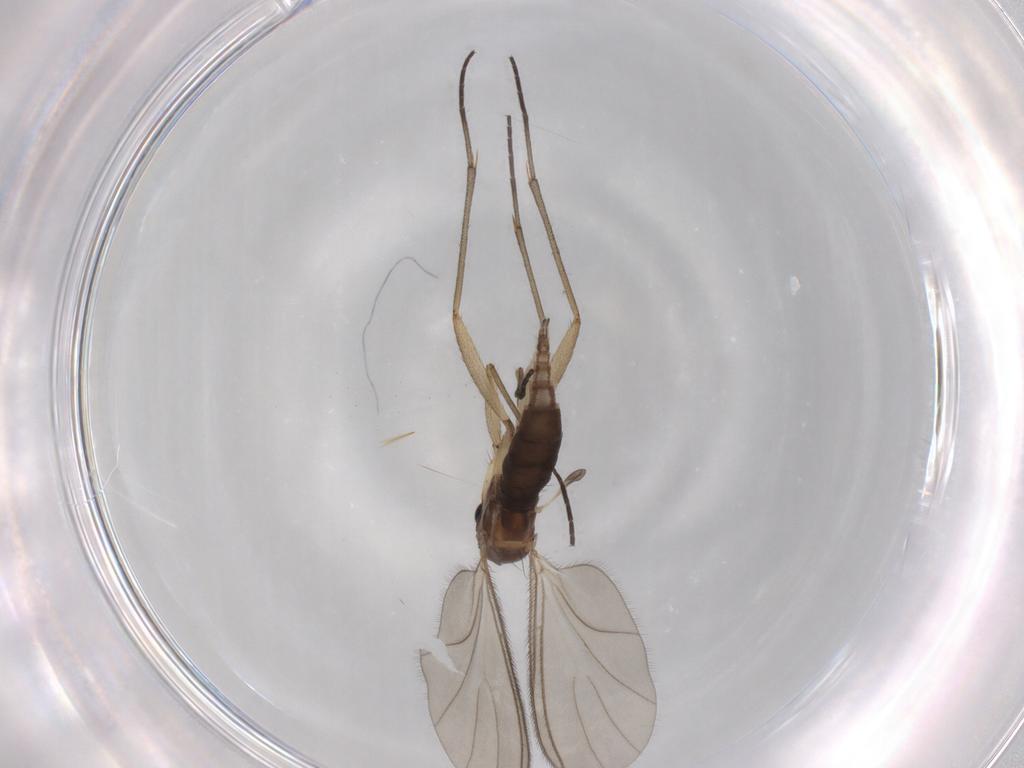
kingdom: Animalia
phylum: Arthropoda
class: Insecta
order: Diptera
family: Sciaridae
